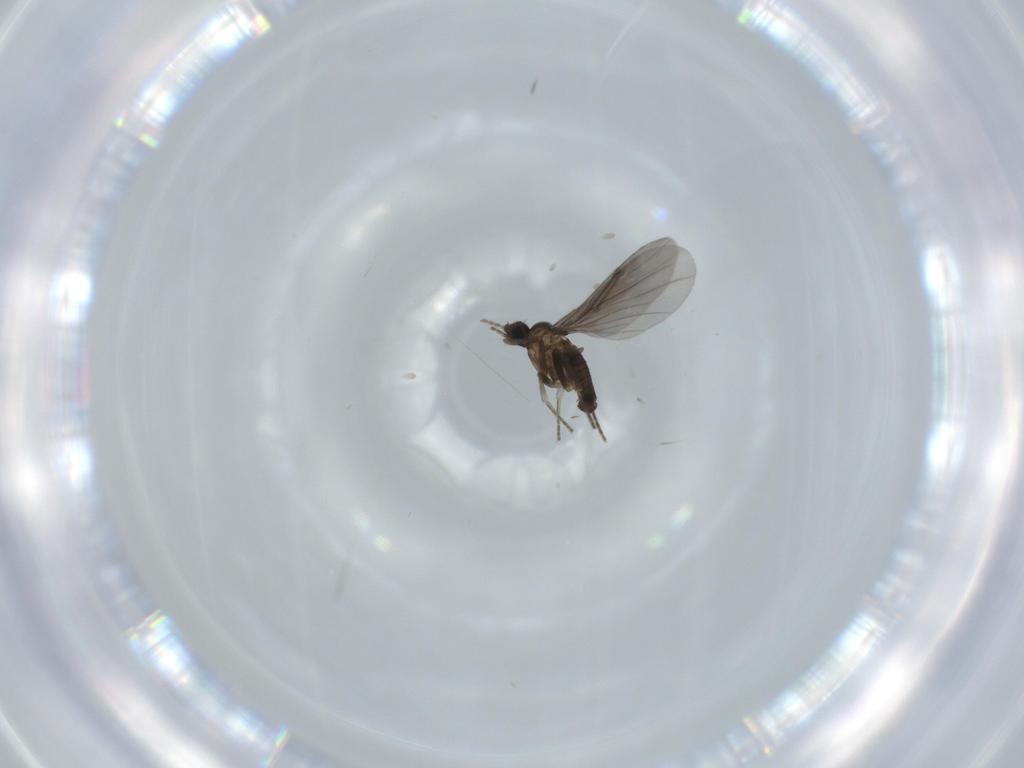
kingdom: Animalia
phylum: Arthropoda
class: Insecta
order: Diptera
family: Phoridae
